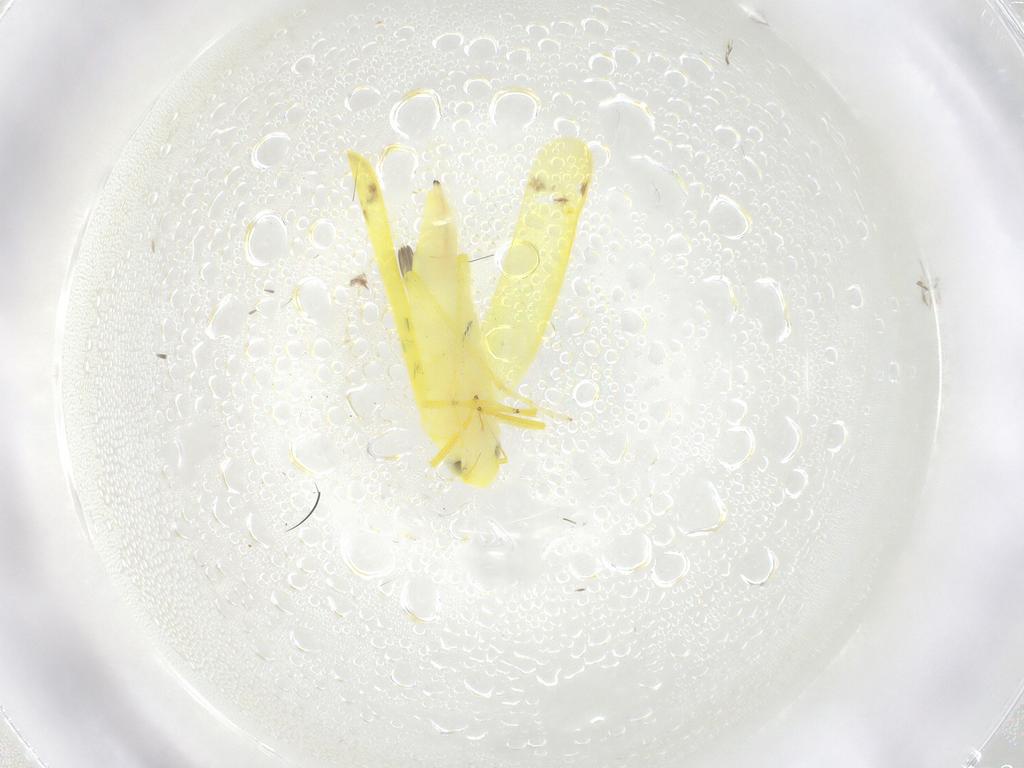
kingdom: Animalia
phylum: Arthropoda
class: Insecta
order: Hemiptera
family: Cicadellidae
